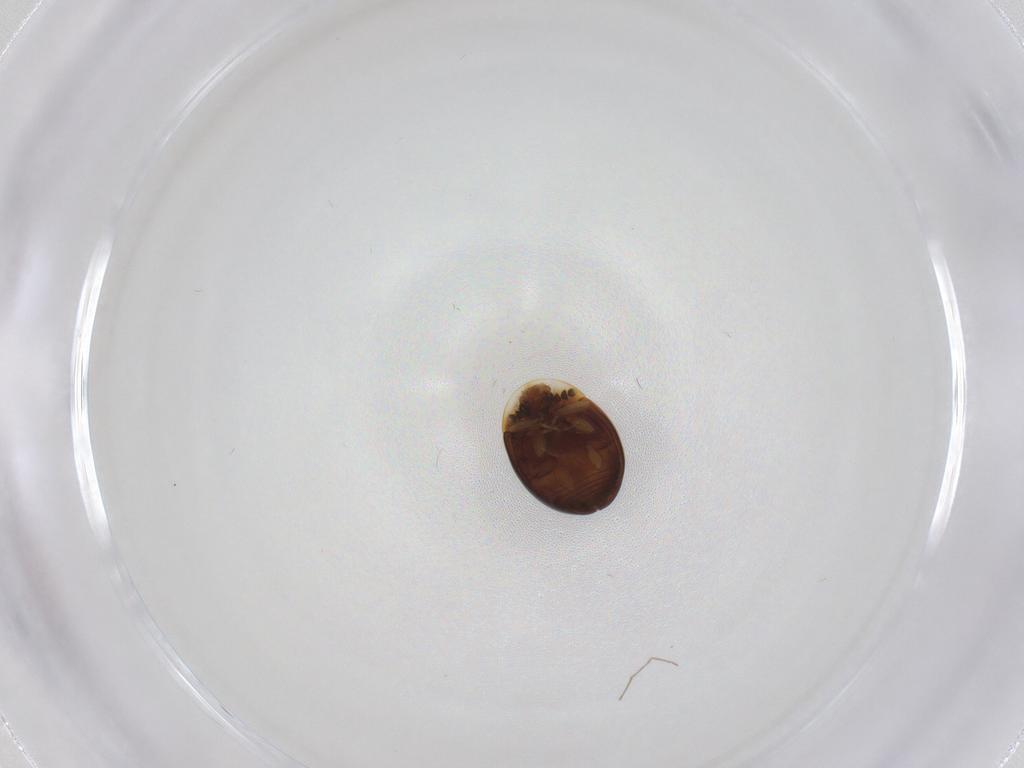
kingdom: Animalia
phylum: Arthropoda
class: Insecta
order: Coleoptera
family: Corylophidae
